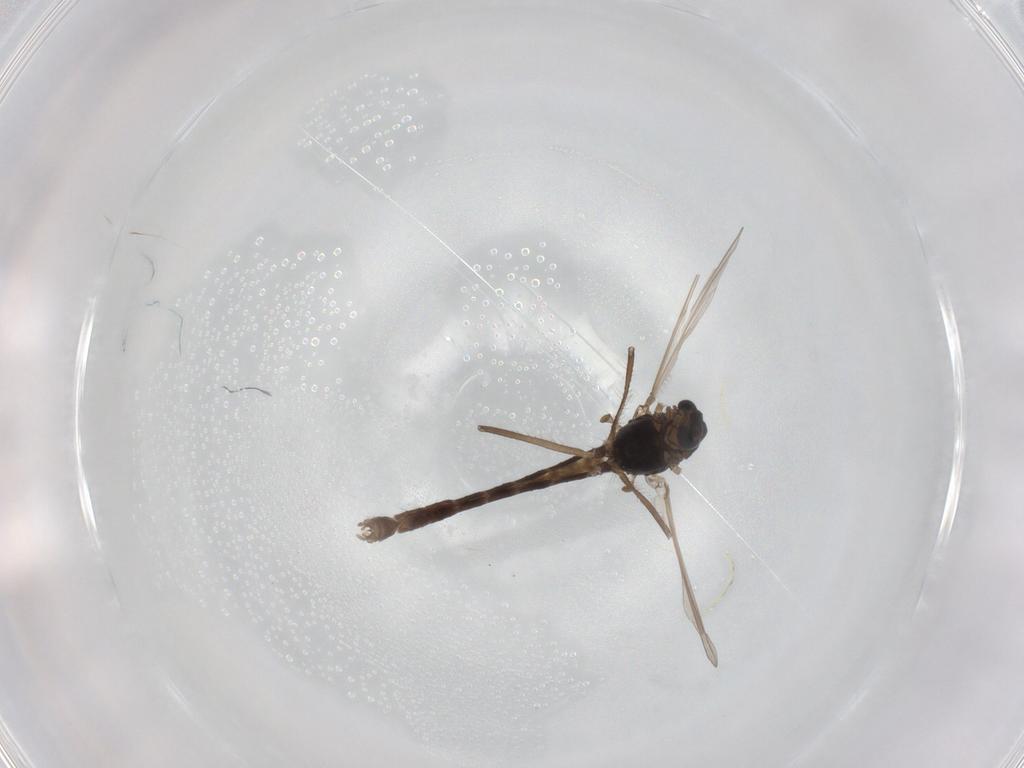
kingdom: Animalia
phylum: Arthropoda
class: Insecta
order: Diptera
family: Chironomidae
